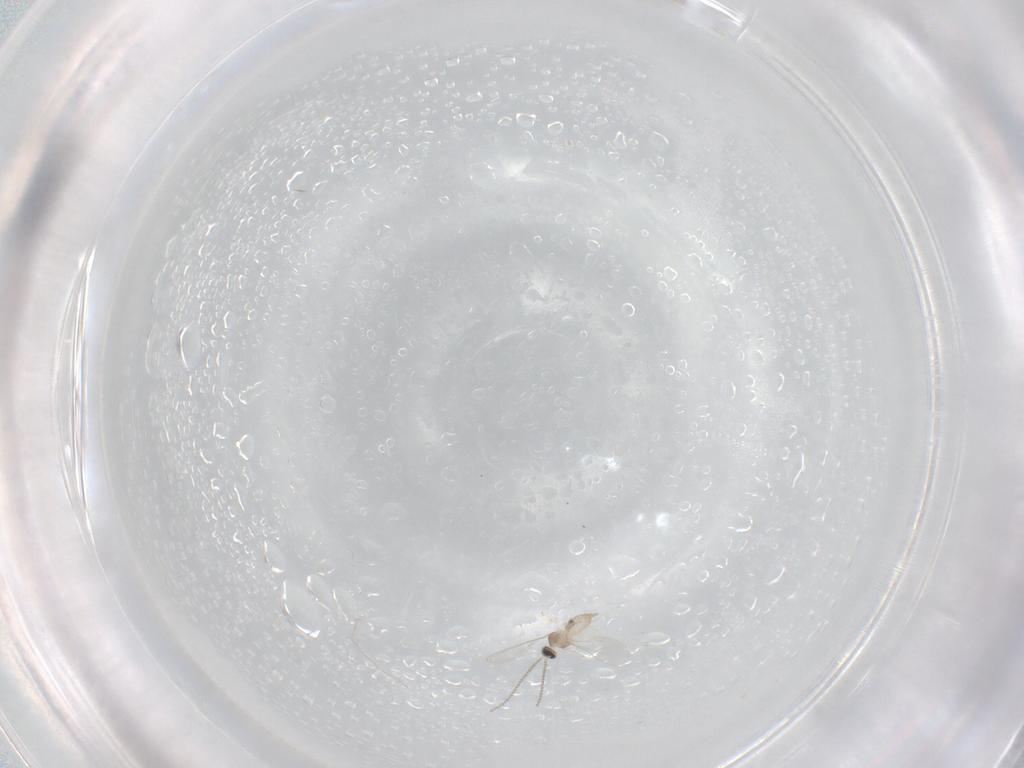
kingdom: Animalia
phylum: Arthropoda
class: Insecta
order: Diptera
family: Cecidomyiidae
